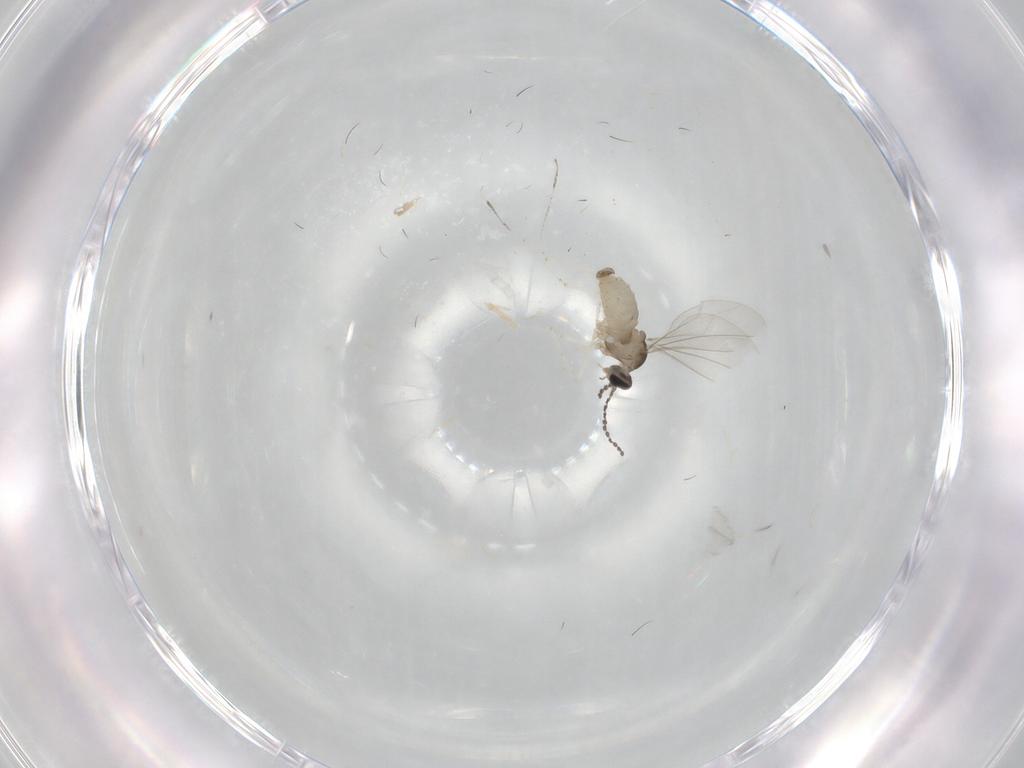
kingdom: Animalia
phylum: Arthropoda
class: Insecta
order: Diptera
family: Cecidomyiidae
